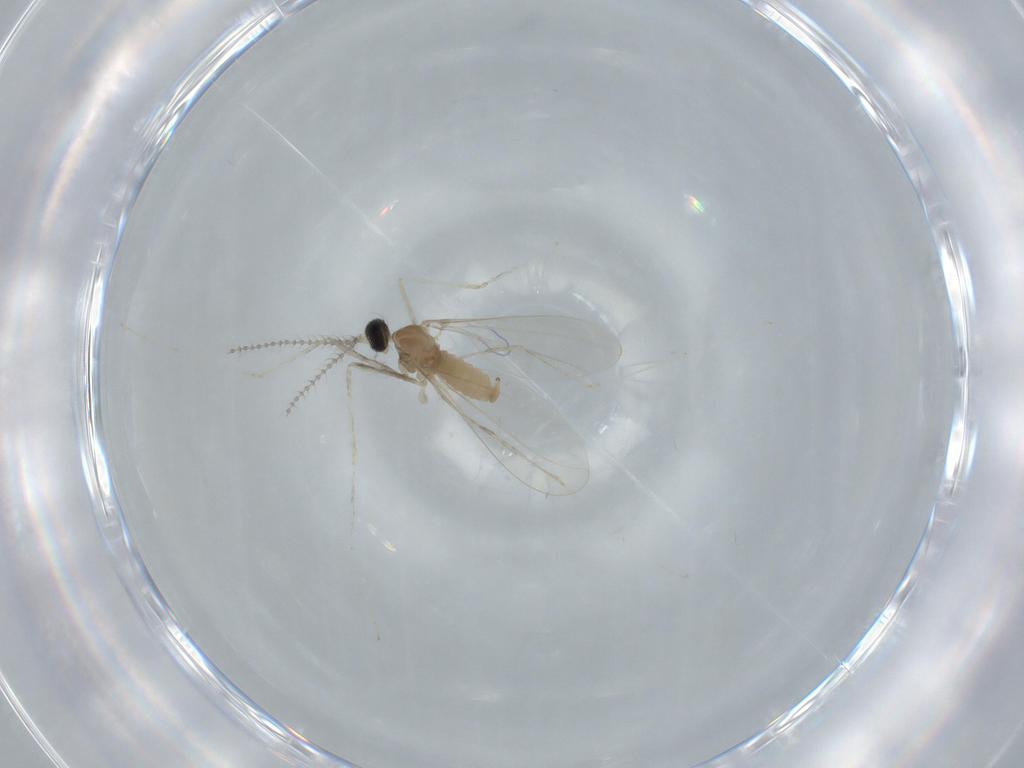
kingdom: Animalia
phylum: Arthropoda
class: Insecta
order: Diptera
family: Cecidomyiidae
